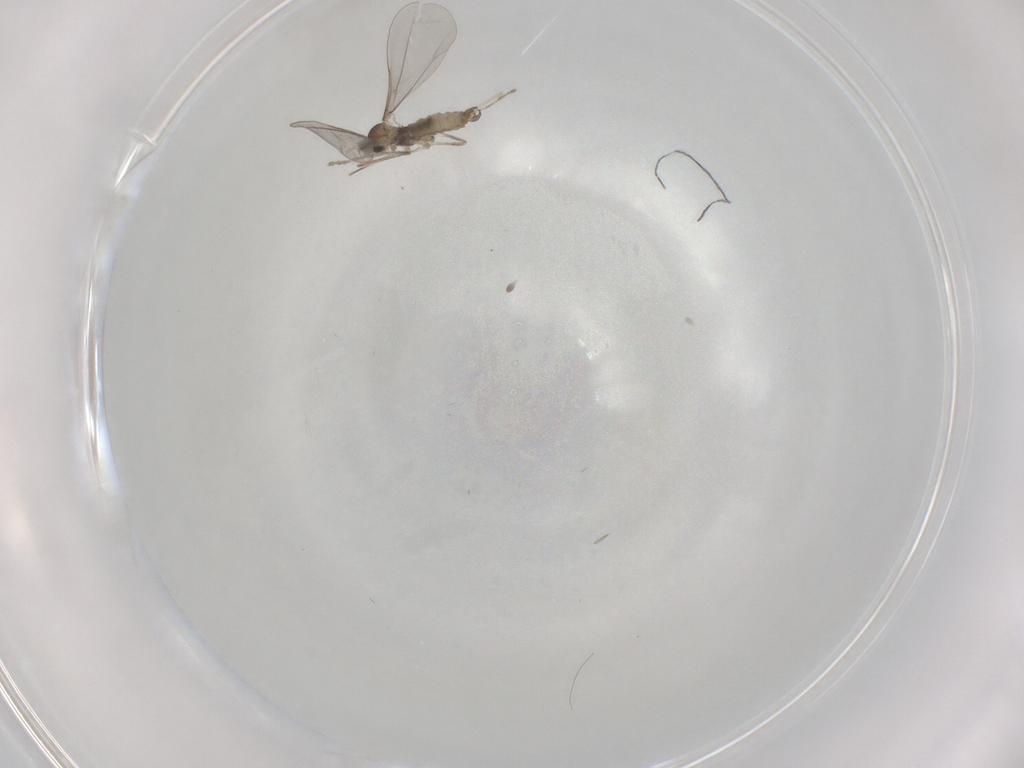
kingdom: Animalia
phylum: Arthropoda
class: Insecta
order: Diptera
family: Cecidomyiidae
